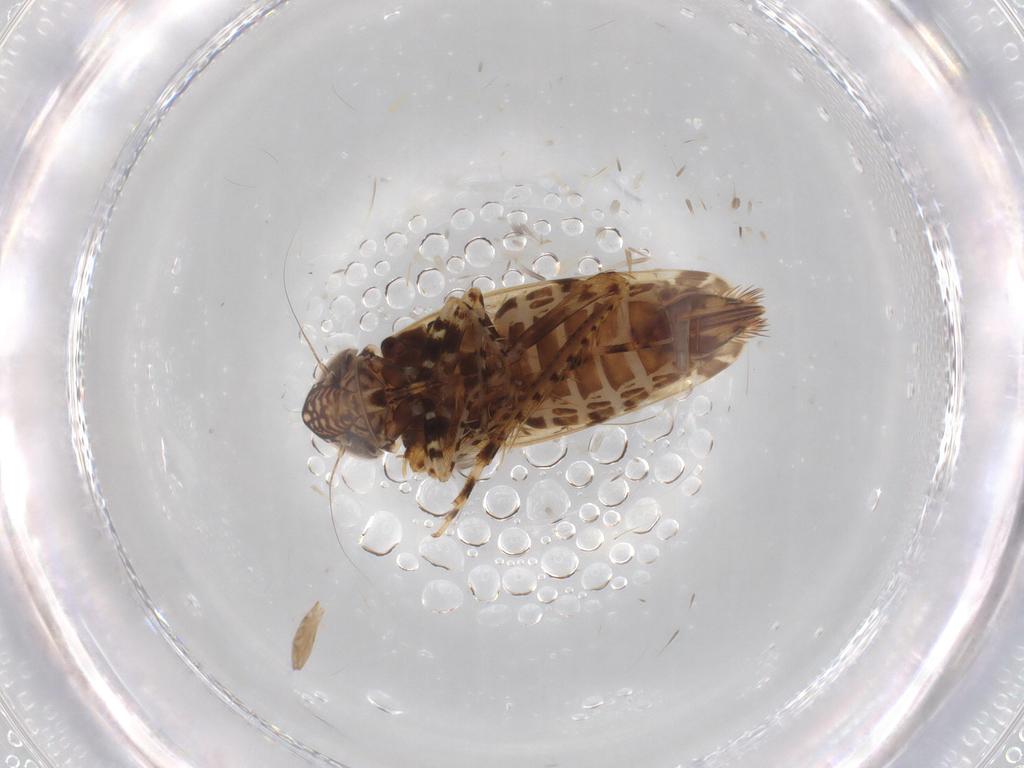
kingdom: Animalia
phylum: Arthropoda
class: Insecta
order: Hemiptera
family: Cicadellidae
